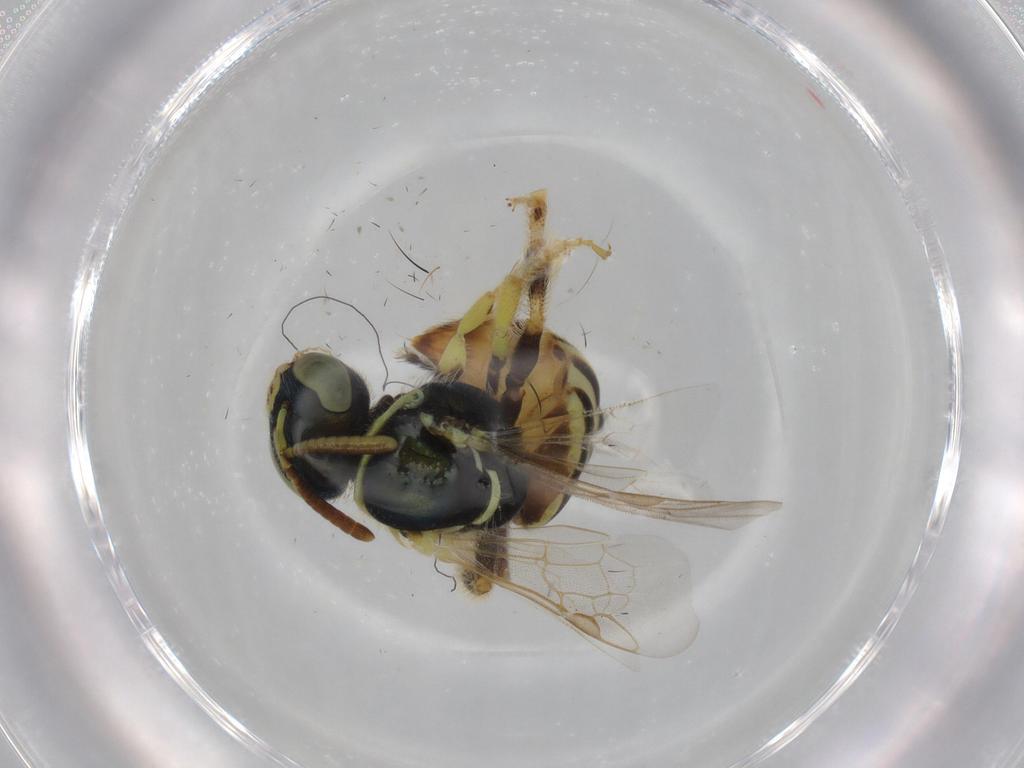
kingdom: Animalia
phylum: Arthropoda
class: Insecta
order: Hymenoptera
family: Halictidae
